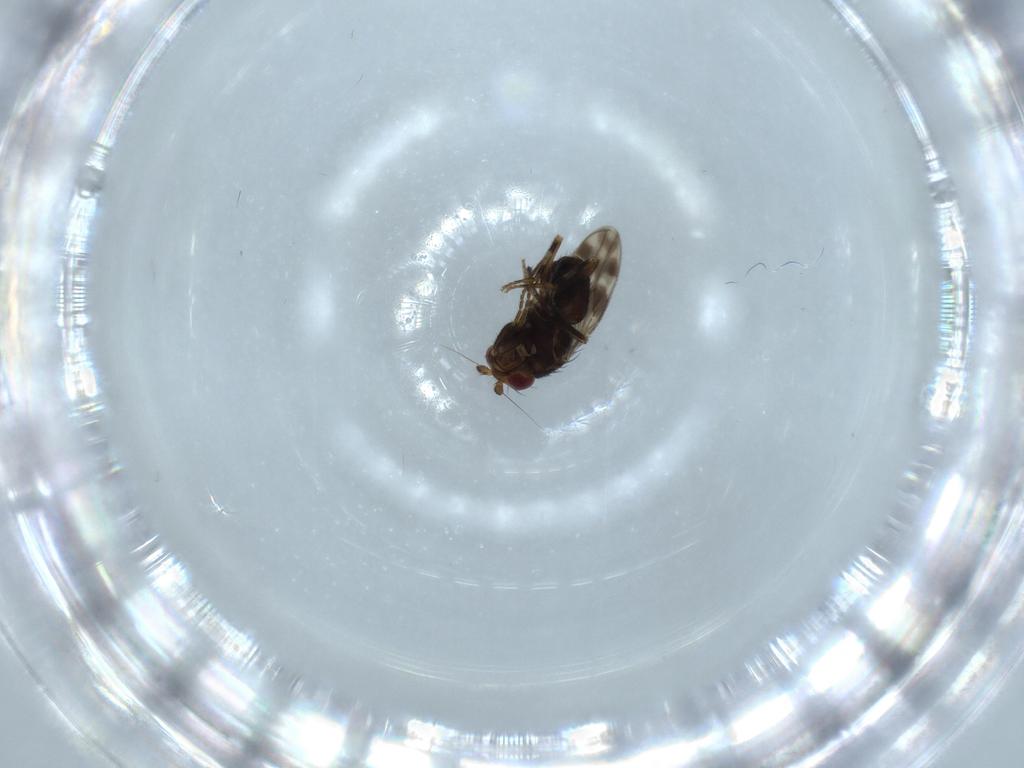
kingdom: Animalia
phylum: Arthropoda
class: Insecta
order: Diptera
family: Sphaeroceridae
